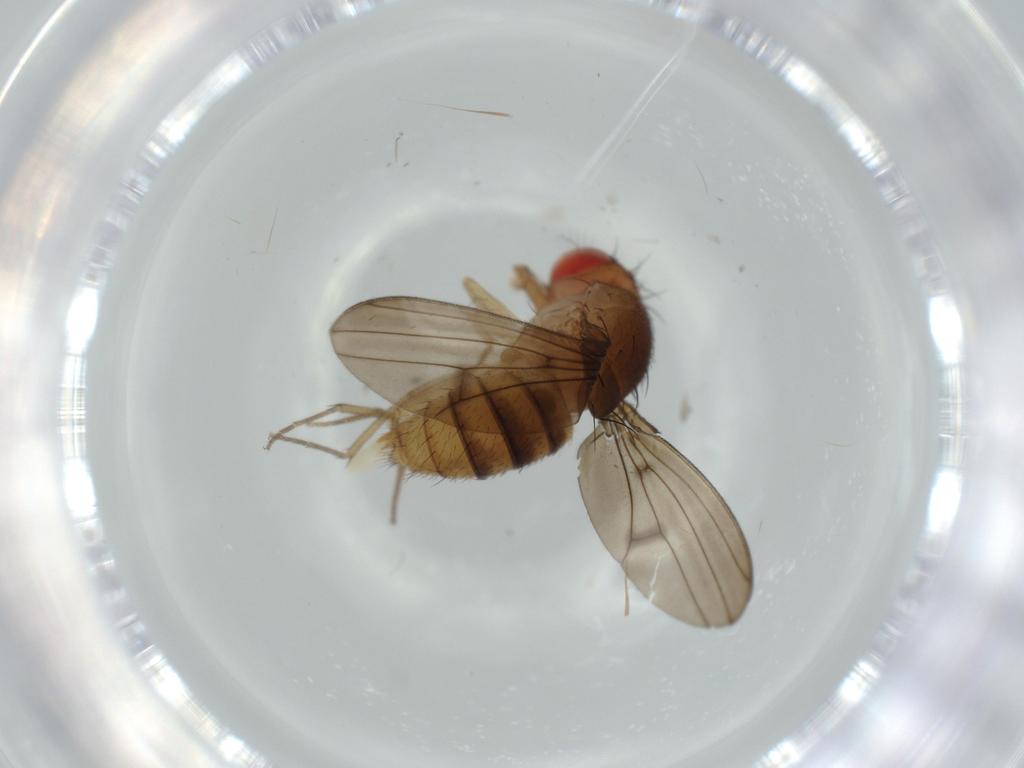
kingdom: Animalia
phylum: Arthropoda
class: Insecta
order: Diptera
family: Drosophilidae
